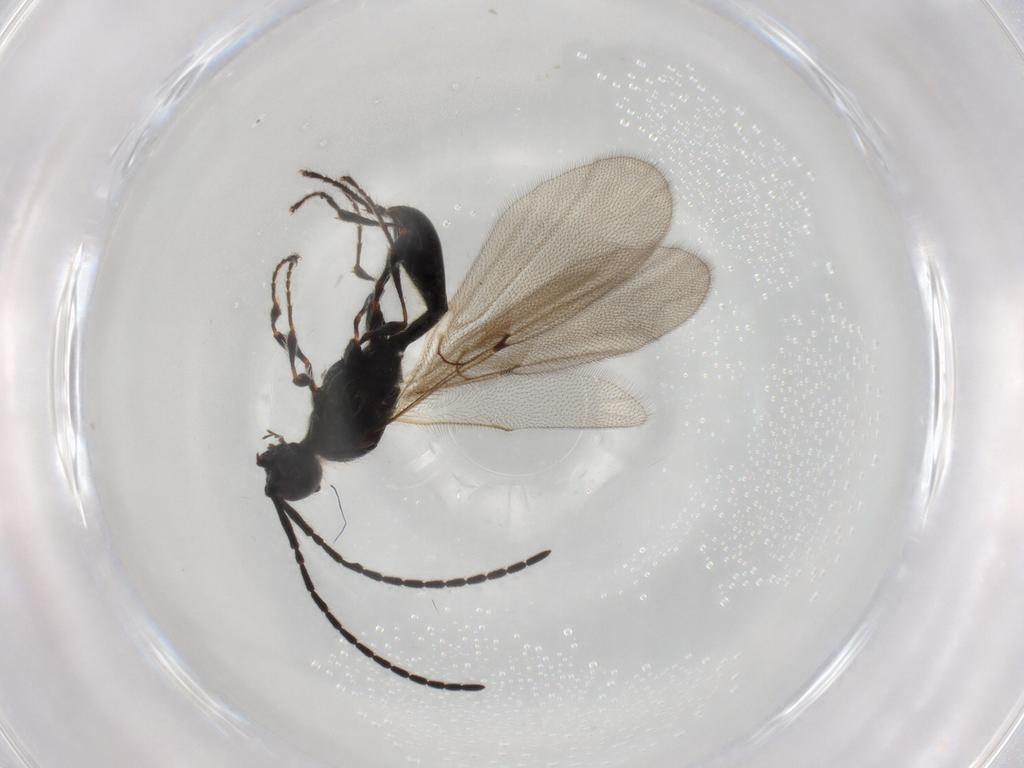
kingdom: Animalia
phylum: Arthropoda
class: Insecta
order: Hymenoptera
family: Diapriidae
